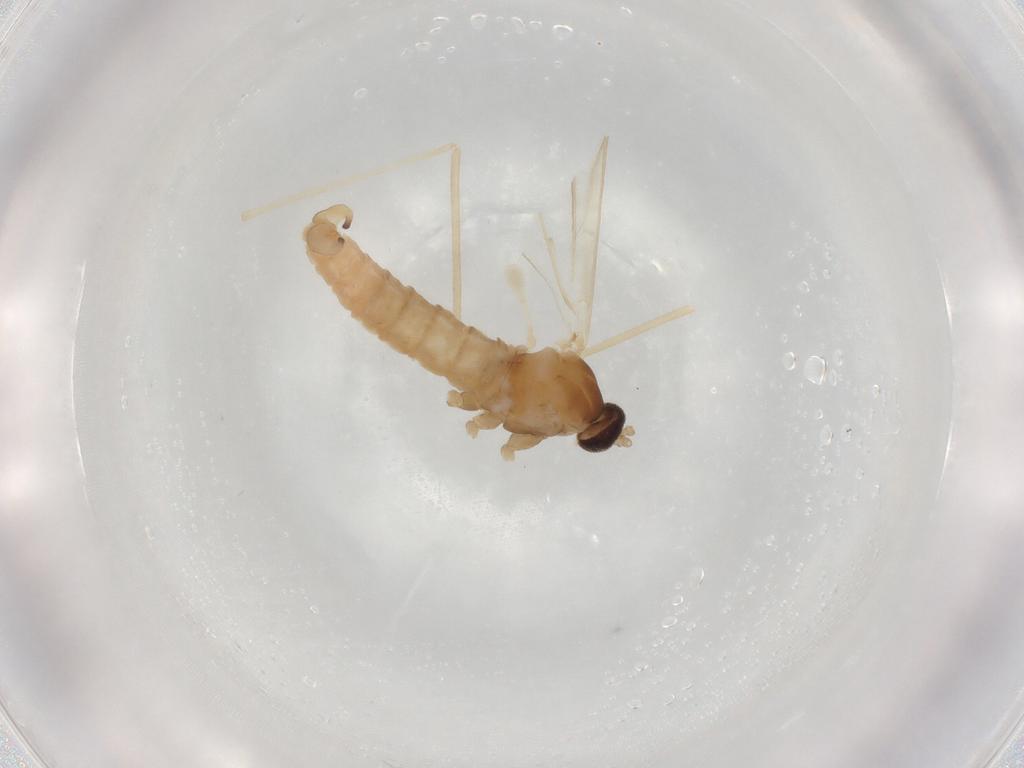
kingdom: Animalia
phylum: Arthropoda
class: Insecta
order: Diptera
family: Cecidomyiidae
